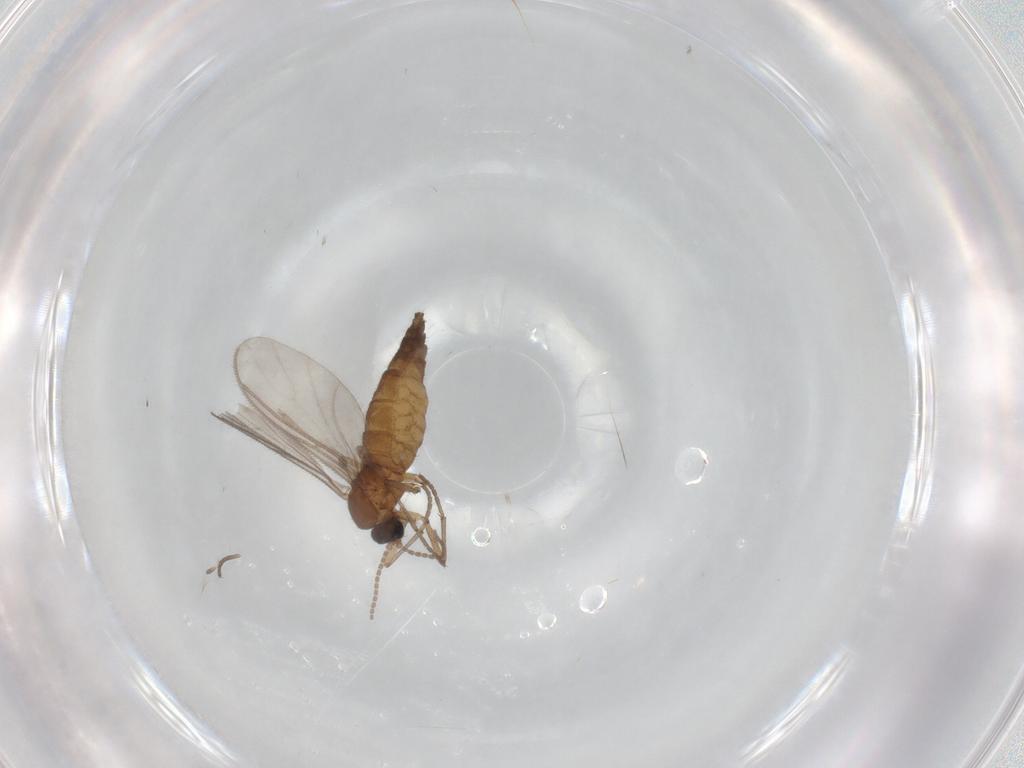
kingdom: Animalia
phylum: Arthropoda
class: Insecta
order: Diptera
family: Sciaridae
